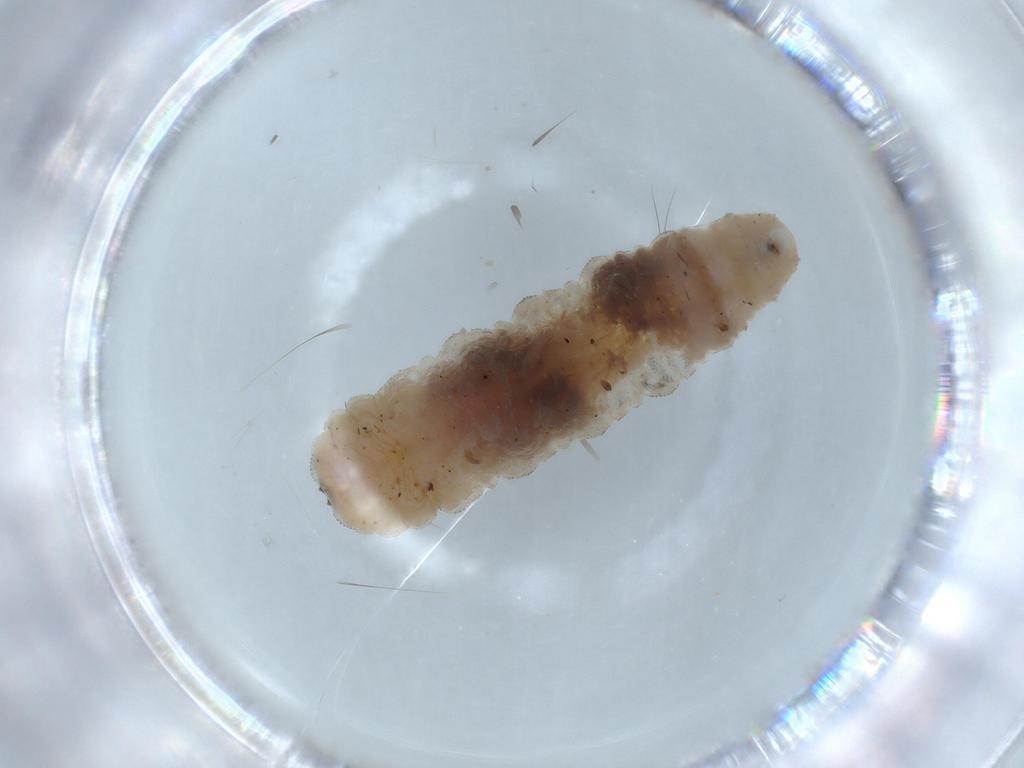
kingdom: Animalia
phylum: Arthropoda
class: Insecta
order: Diptera
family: Syrphidae
